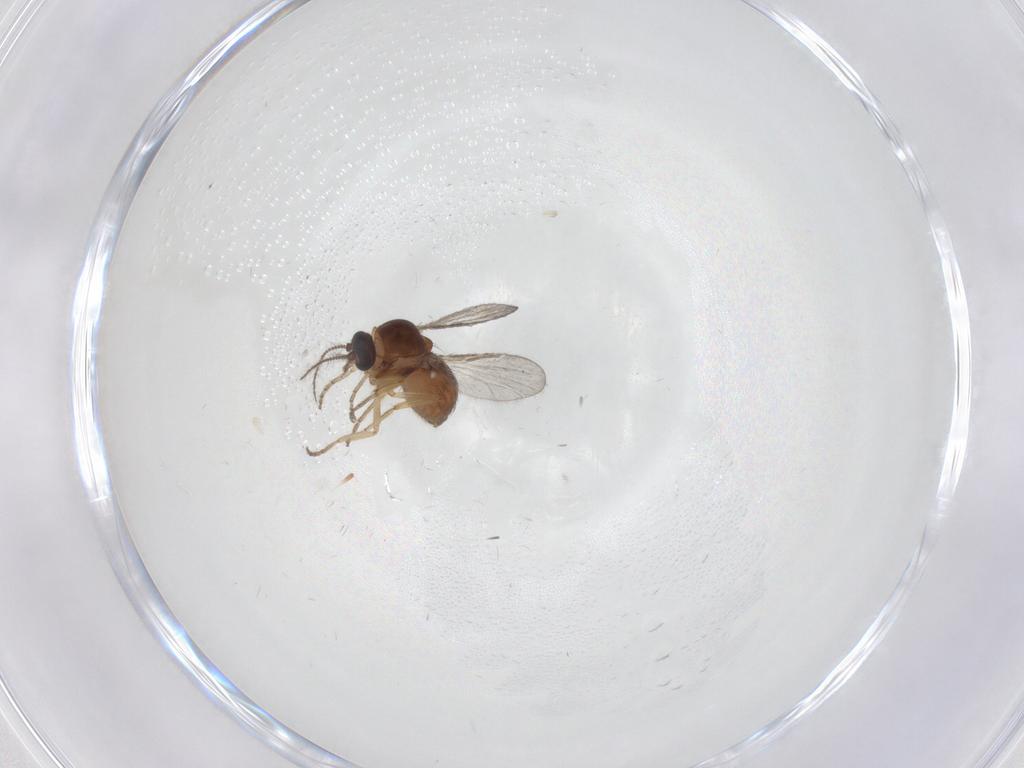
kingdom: Animalia
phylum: Arthropoda
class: Insecta
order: Diptera
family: Ceratopogonidae
